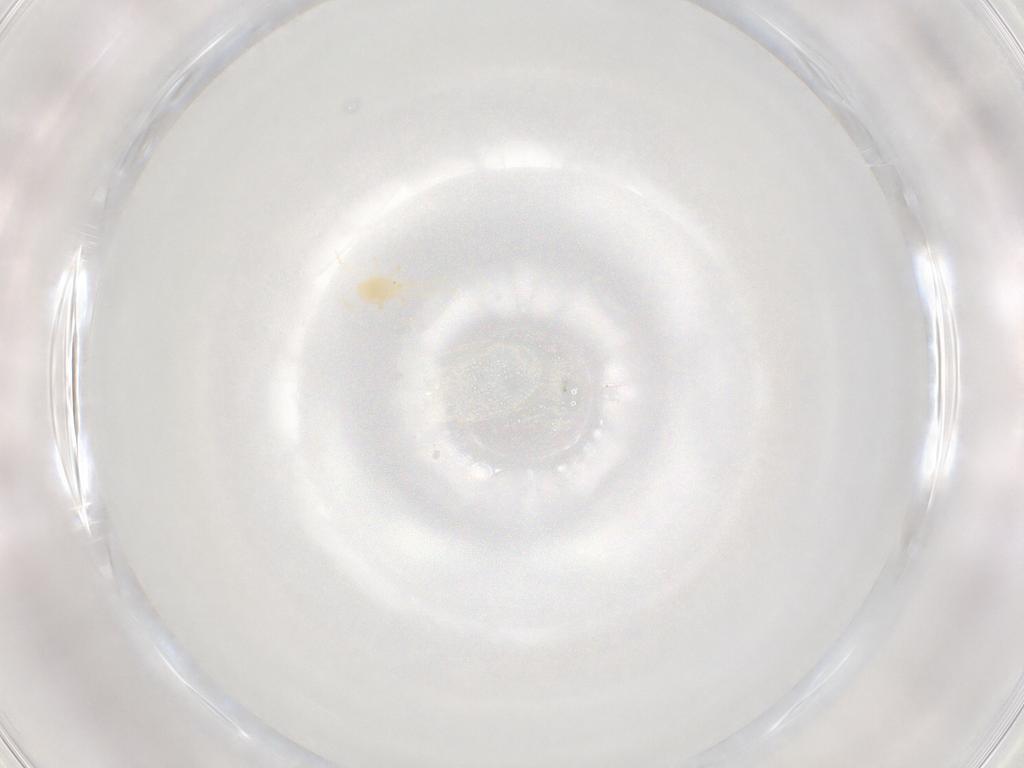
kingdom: Animalia
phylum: Arthropoda
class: Arachnida
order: Mesostigmata
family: Phytoseiidae
